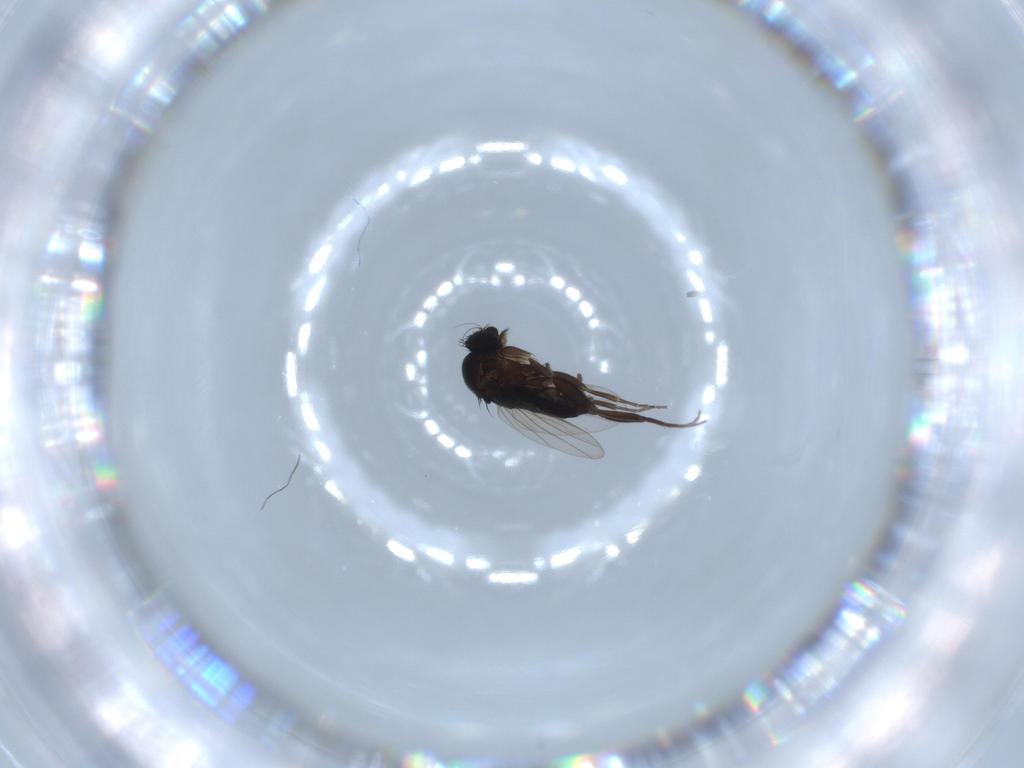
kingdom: Animalia
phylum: Arthropoda
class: Insecta
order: Diptera
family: Phoridae
